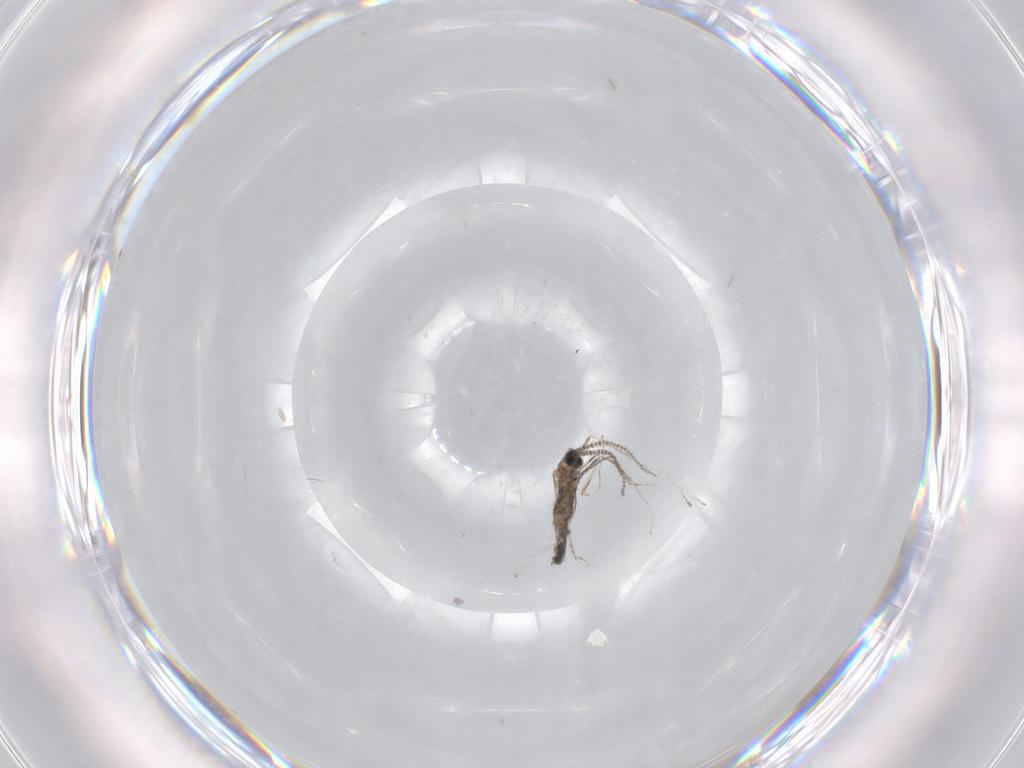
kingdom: Animalia
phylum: Arthropoda
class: Insecta
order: Diptera
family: Cecidomyiidae
